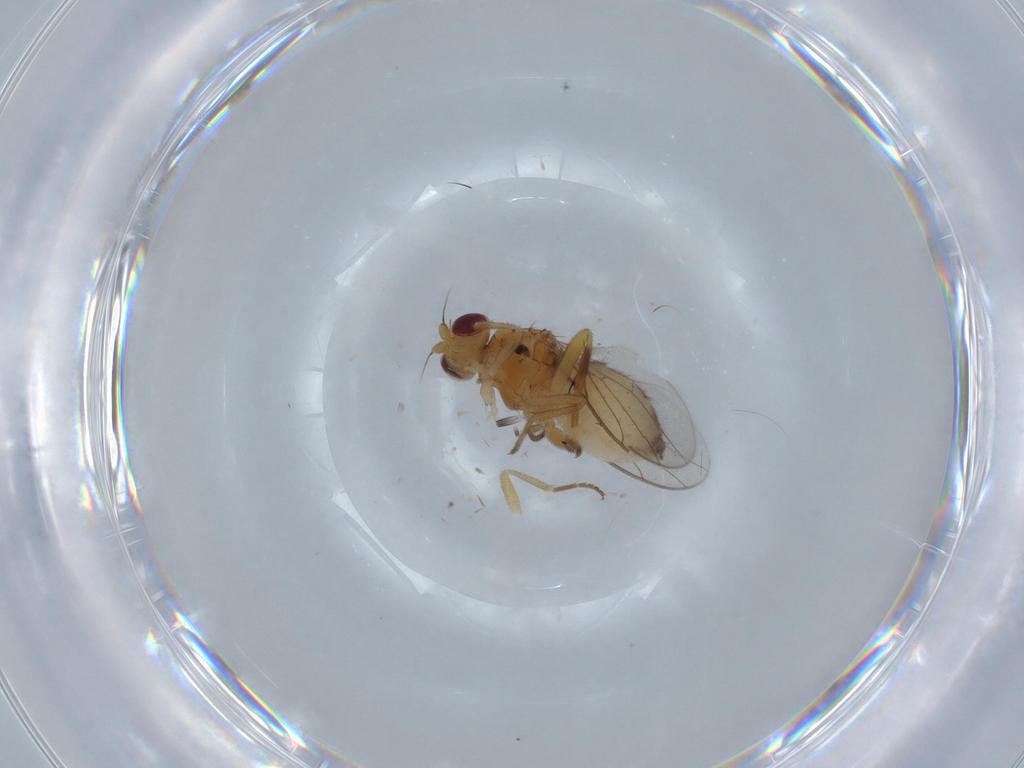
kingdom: Animalia
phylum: Arthropoda
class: Insecta
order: Diptera
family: Chloropidae
